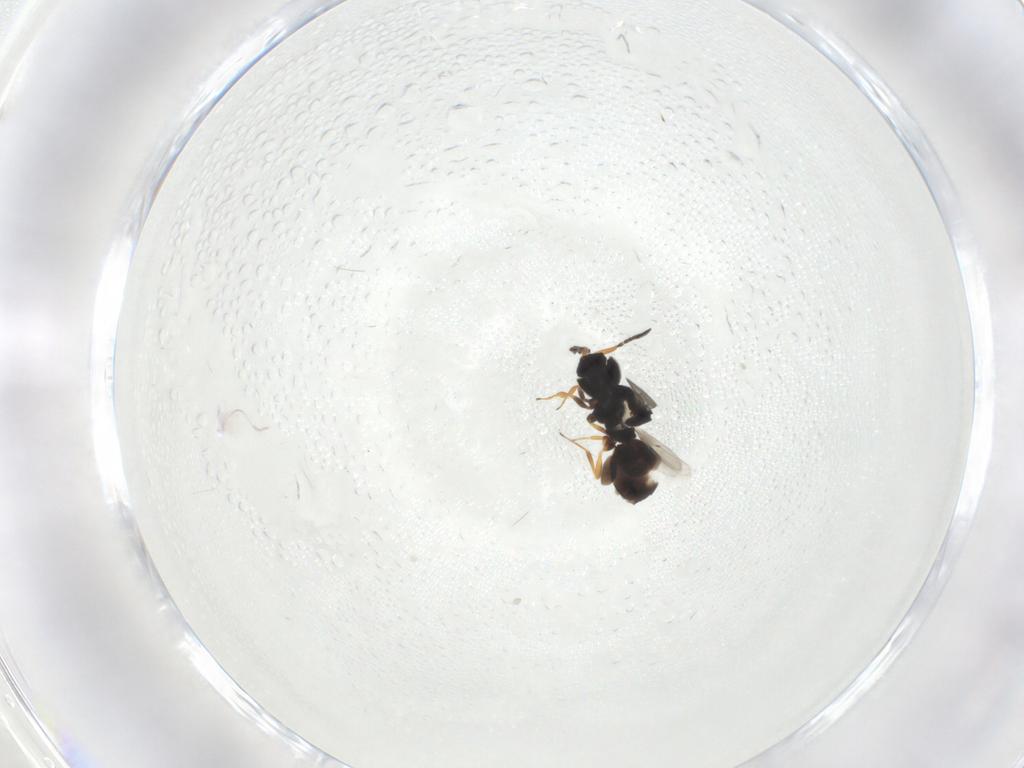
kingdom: Animalia
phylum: Arthropoda
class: Insecta
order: Hymenoptera
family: Scelionidae
